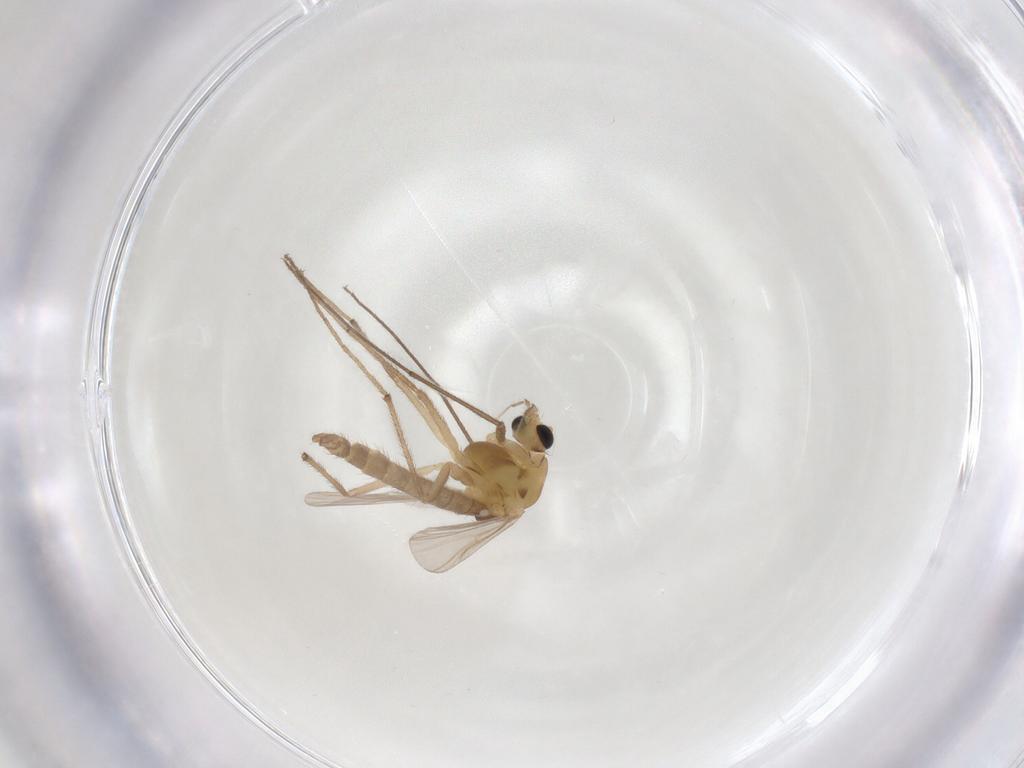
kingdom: Animalia
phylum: Arthropoda
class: Insecta
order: Diptera
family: Chironomidae
